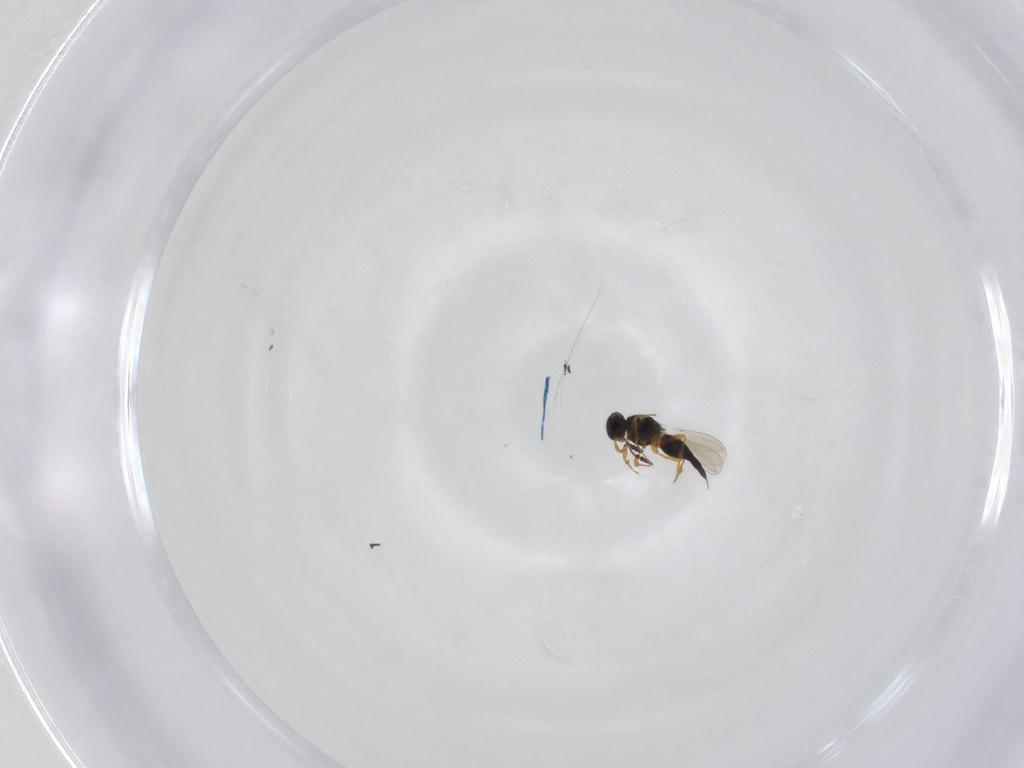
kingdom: Animalia
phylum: Arthropoda
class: Insecta
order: Hymenoptera
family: Platygastridae
